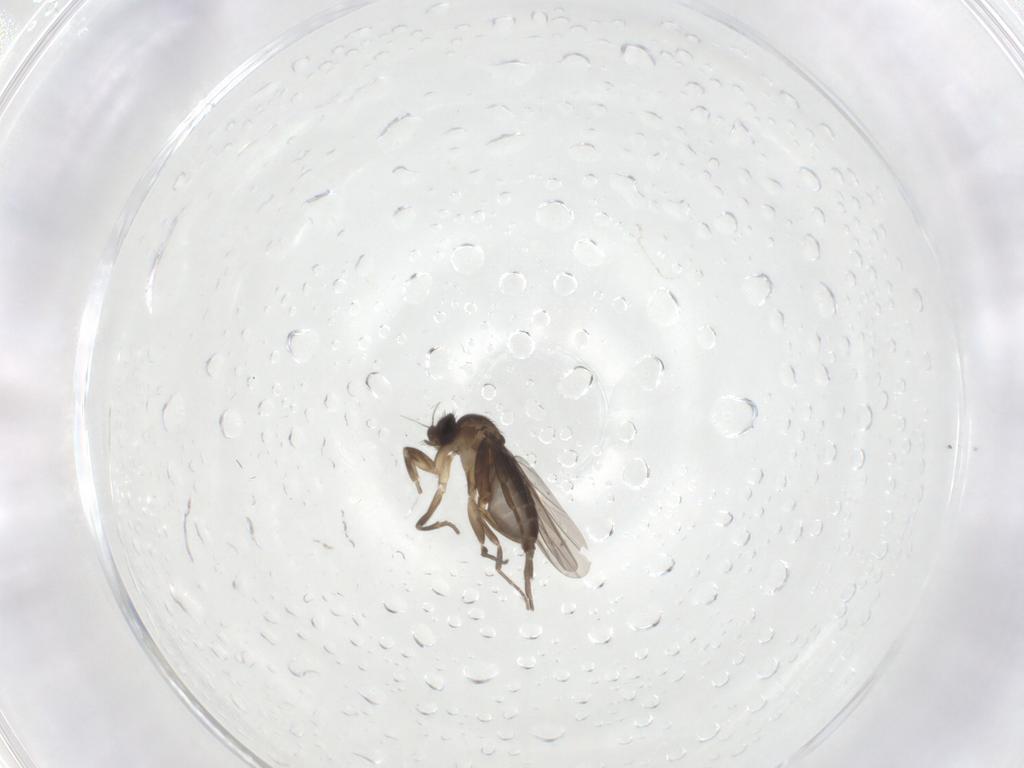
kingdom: Animalia
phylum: Arthropoda
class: Insecta
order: Diptera
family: Phoridae
